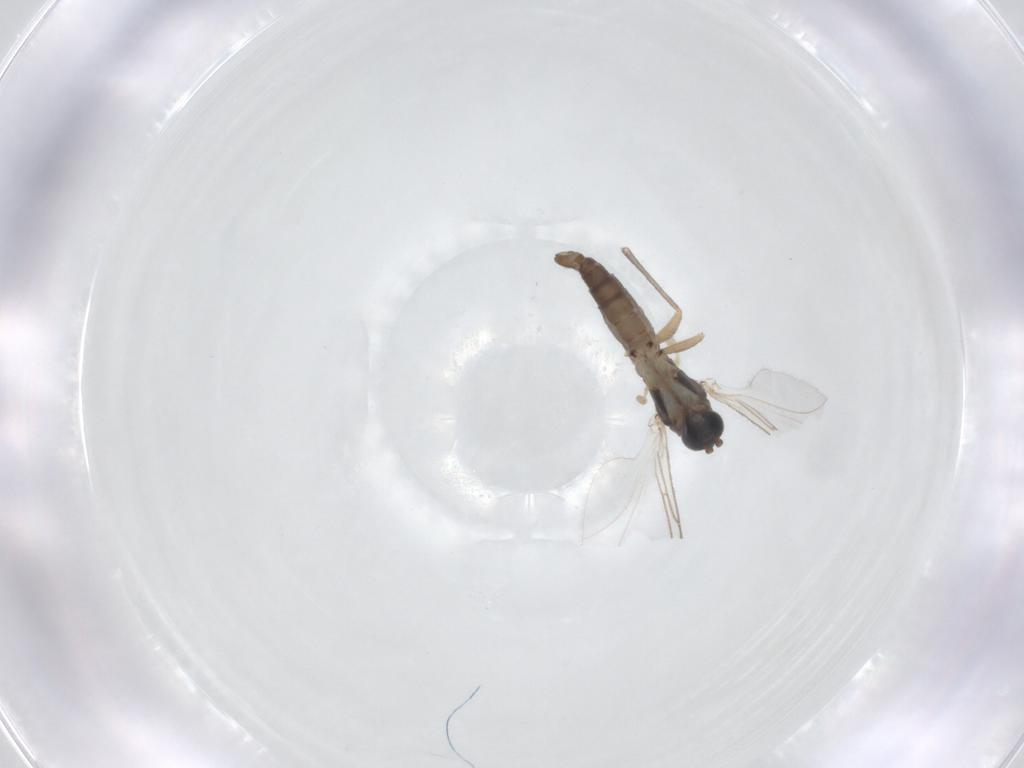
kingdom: Animalia
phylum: Arthropoda
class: Insecta
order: Diptera
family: Sciaridae
